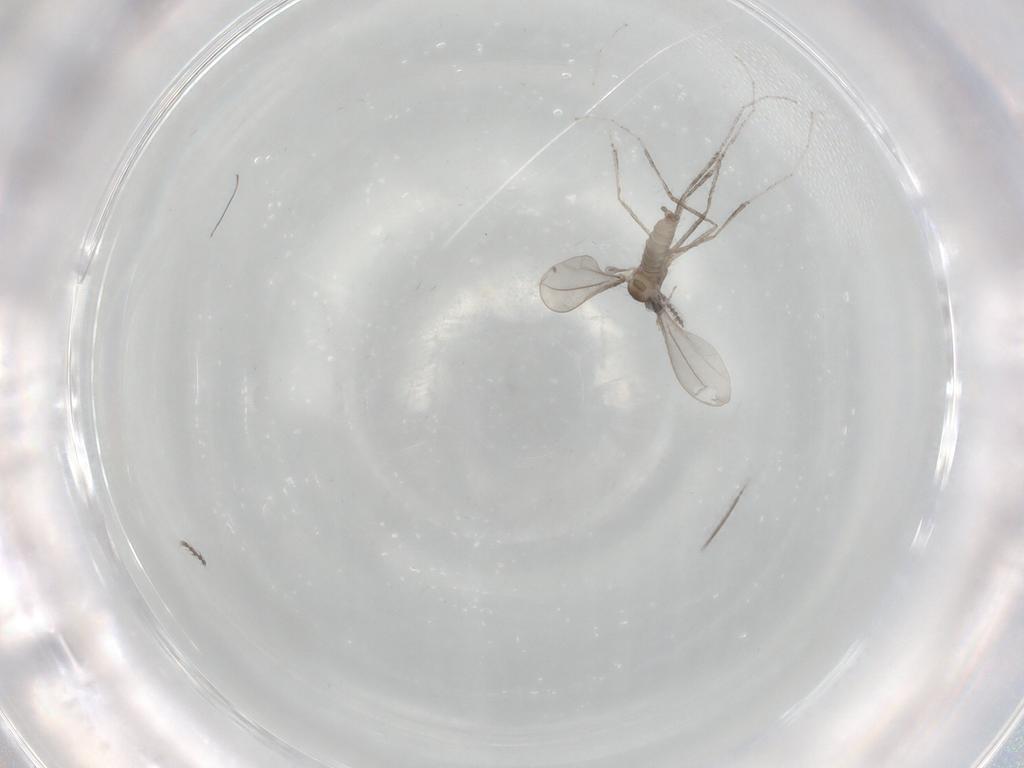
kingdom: Animalia
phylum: Arthropoda
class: Insecta
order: Diptera
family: Cecidomyiidae
